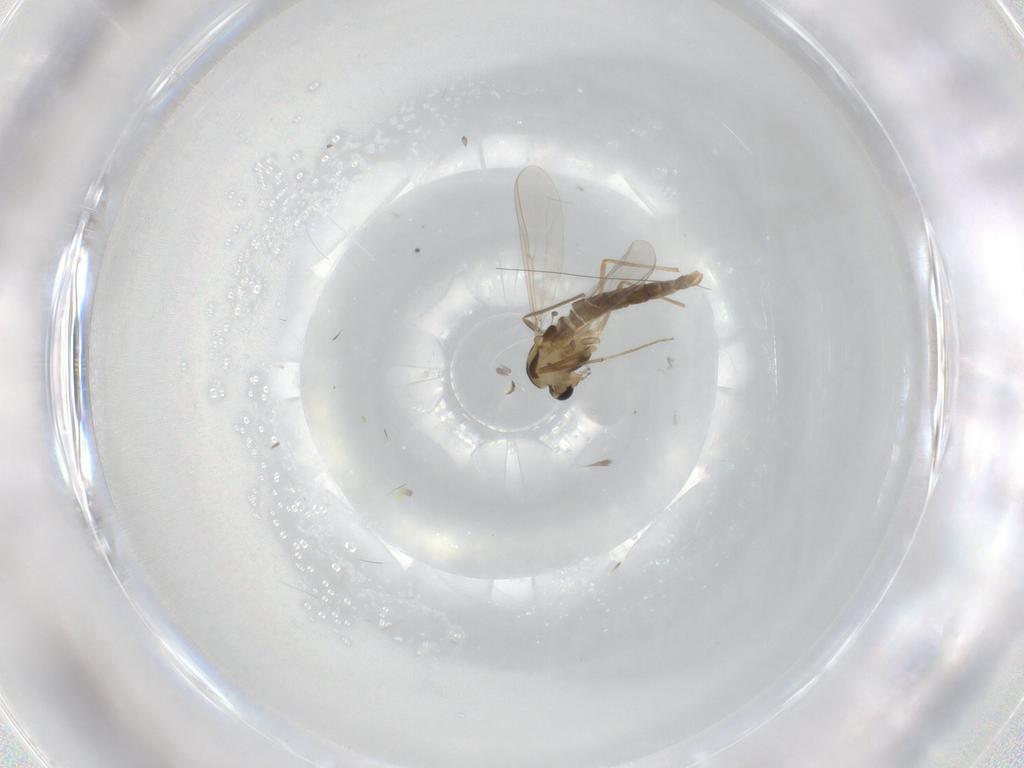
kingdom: Animalia
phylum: Arthropoda
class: Insecta
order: Diptera
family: Chironomidae
